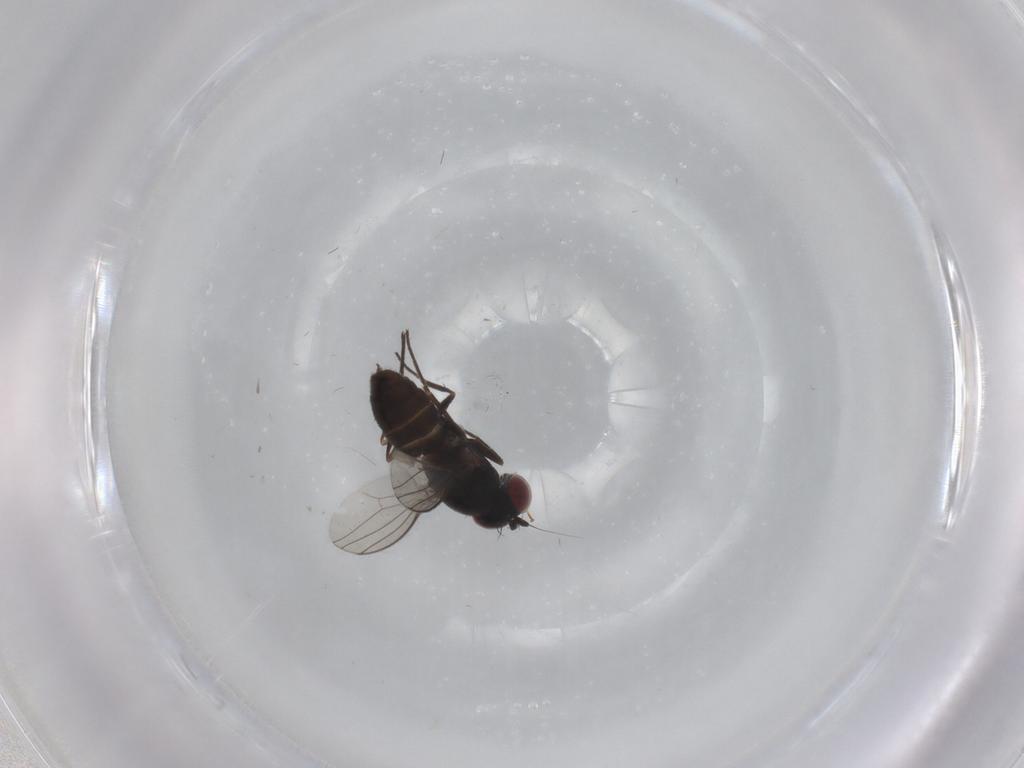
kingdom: Animalia
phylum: Arthropoda
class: Insecta
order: Diptera
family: Dolichopodidae
